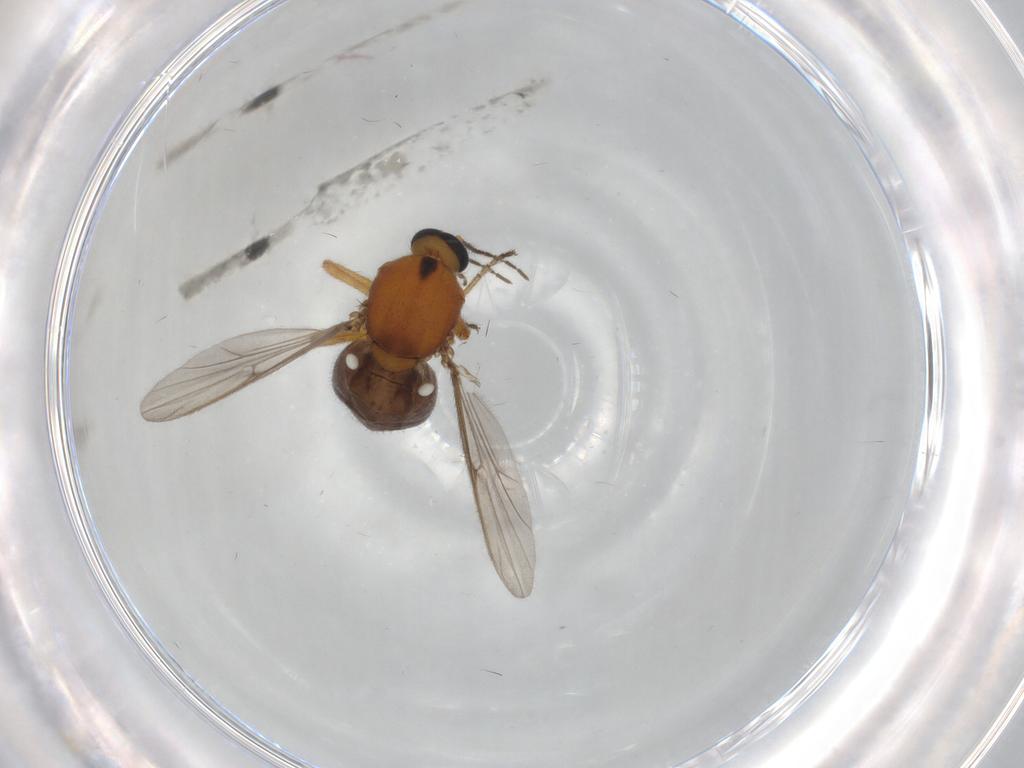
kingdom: Animalia
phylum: Arthropoda
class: Insecta
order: Diptera
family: Ceratopogonidae
